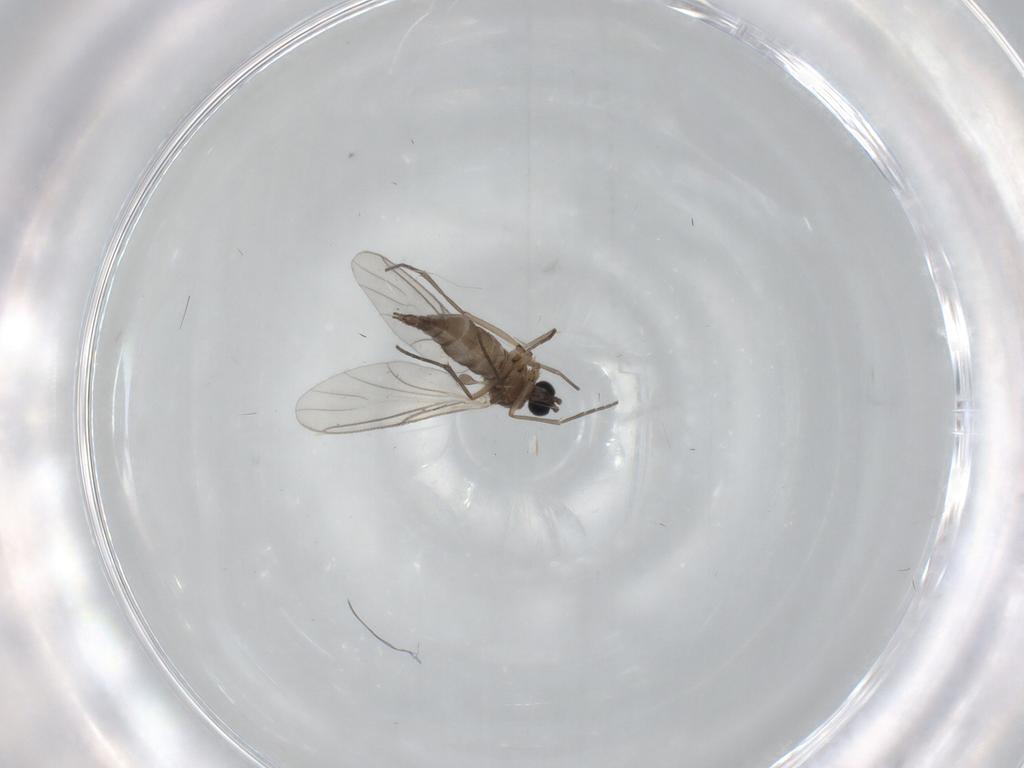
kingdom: Animalia
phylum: Arthropoda
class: Insecta
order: Diptera
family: Sciaridae
